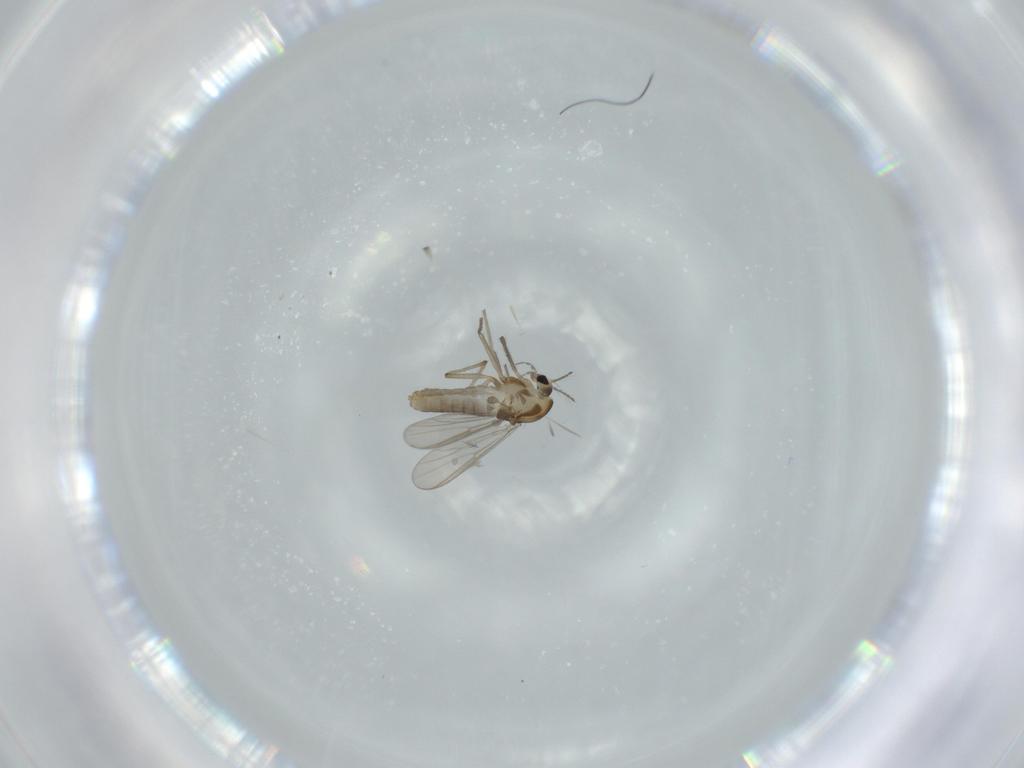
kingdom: Animalia
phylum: Arthropoda
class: Insecta
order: Diptera
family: Chironomidae
